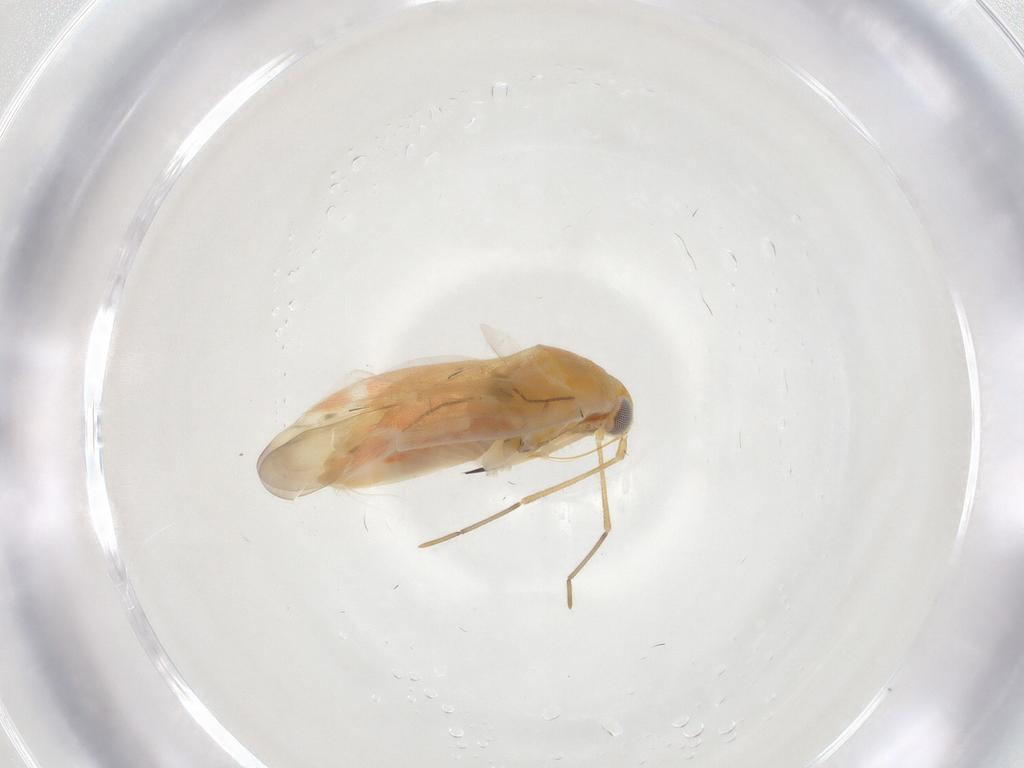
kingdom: Animalia
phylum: Arthropoda
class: Insecta
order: Hemiptera
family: Aphididae
